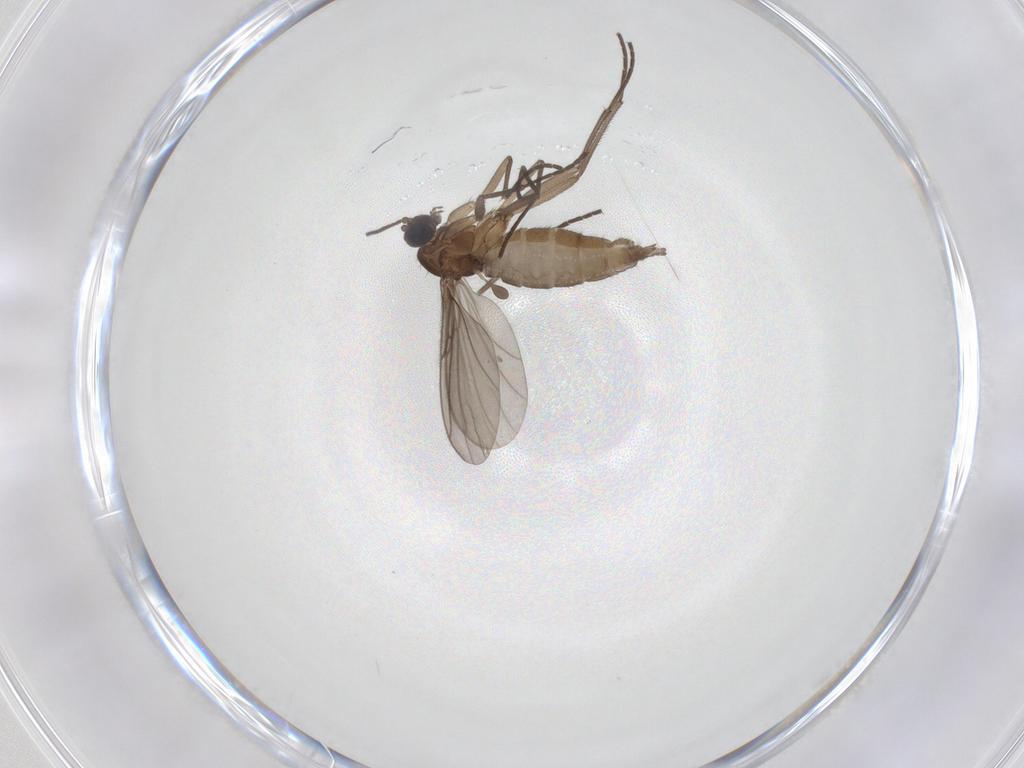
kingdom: Animalia
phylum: Arthropoda
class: Insecta
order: Diptera
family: Sciaridae
